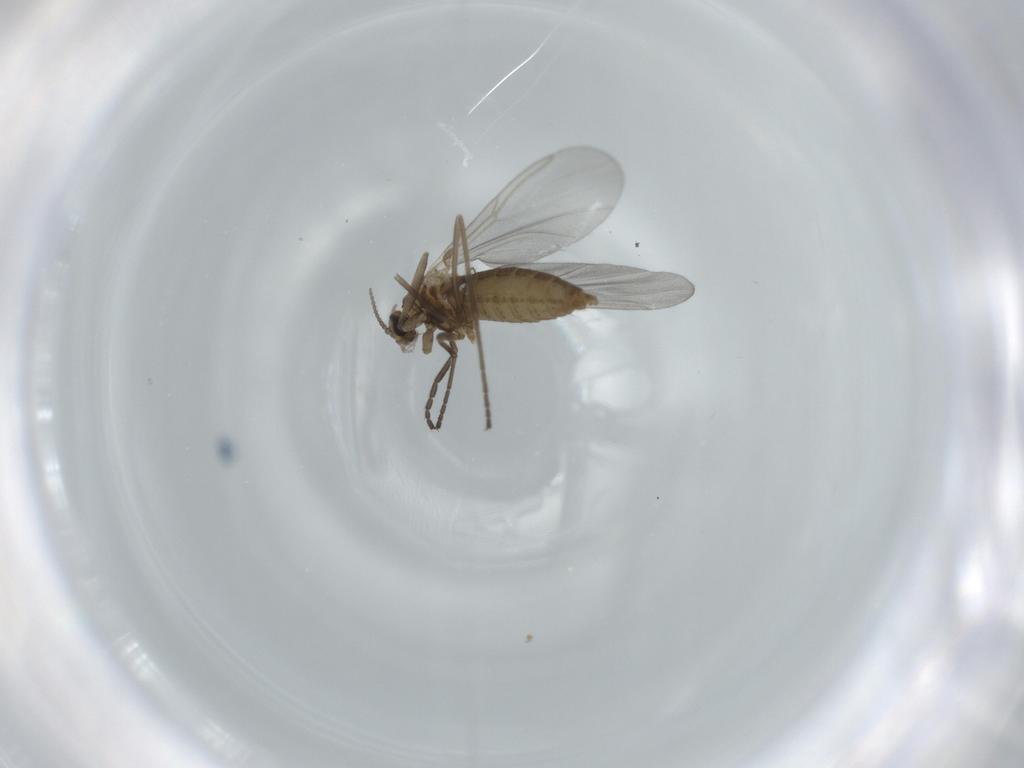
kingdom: Animalia
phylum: Arthropoda
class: Insecta
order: Diptera
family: Cecidomyiidae
